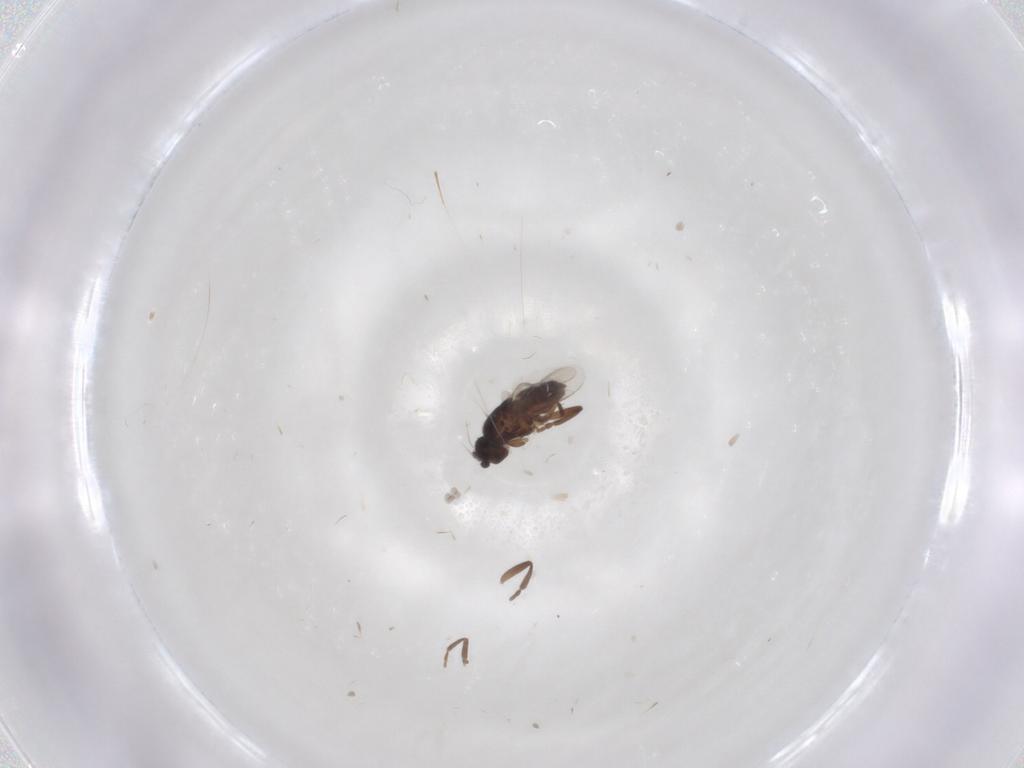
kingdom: Animalia
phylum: Arthropoda
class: Insecta
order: Diptera
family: Sphaeroceridae
